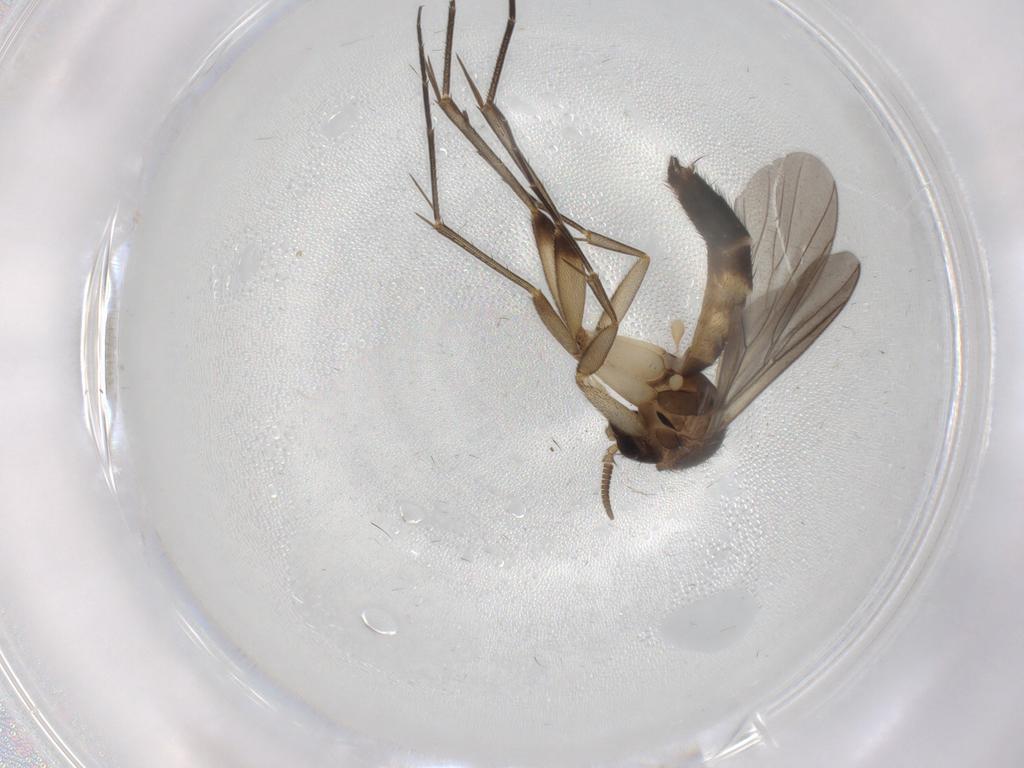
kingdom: Animalia
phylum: Arthropoda
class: Insecta
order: Diptera
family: Mycetophilidae
